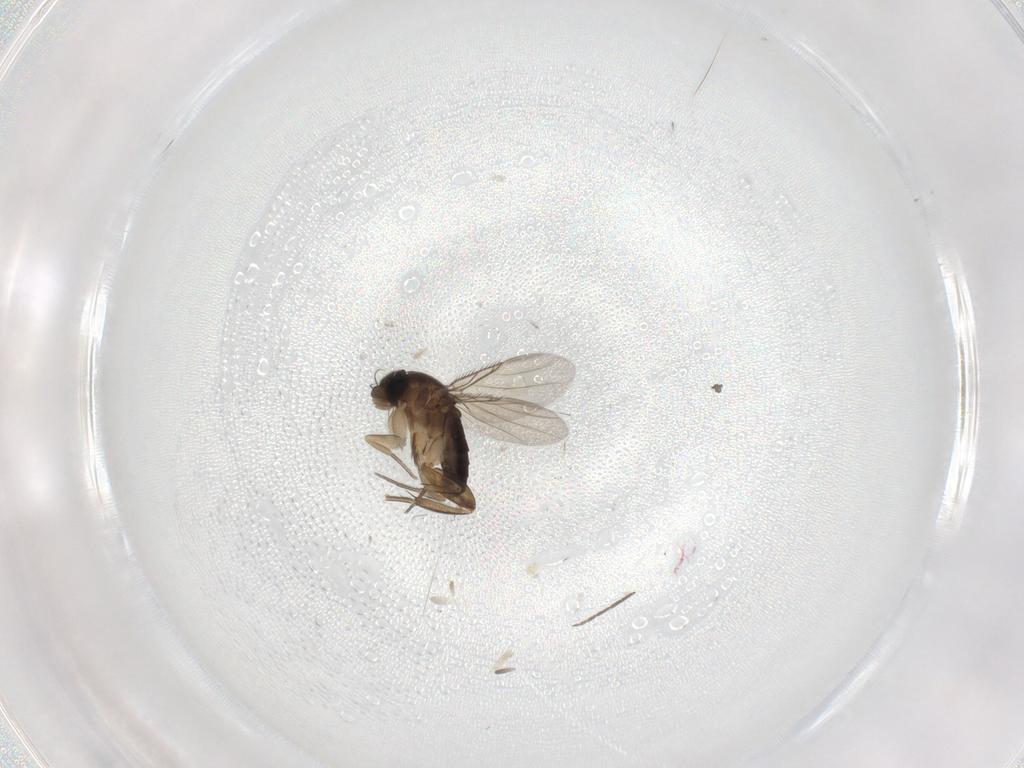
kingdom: Animalia
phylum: Arthropoda
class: Insecta
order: Diptera
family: Phoridae
